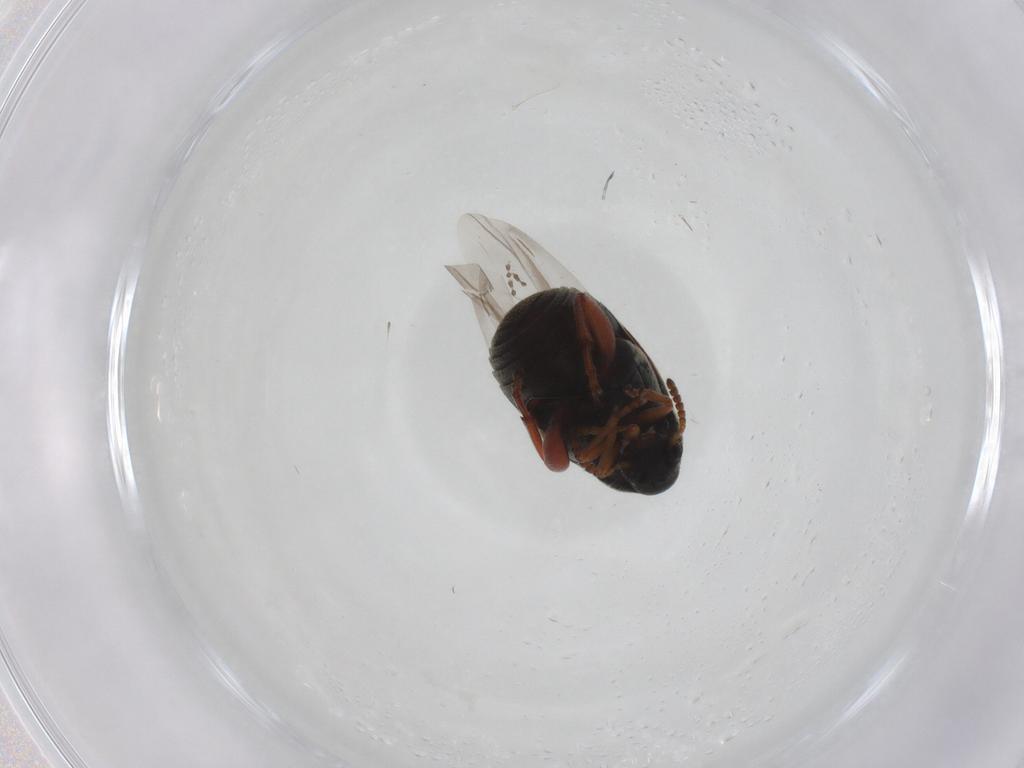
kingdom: Animalia
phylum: Arthropoda
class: Insecta
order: Coleoptera
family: Chrysomelidae
